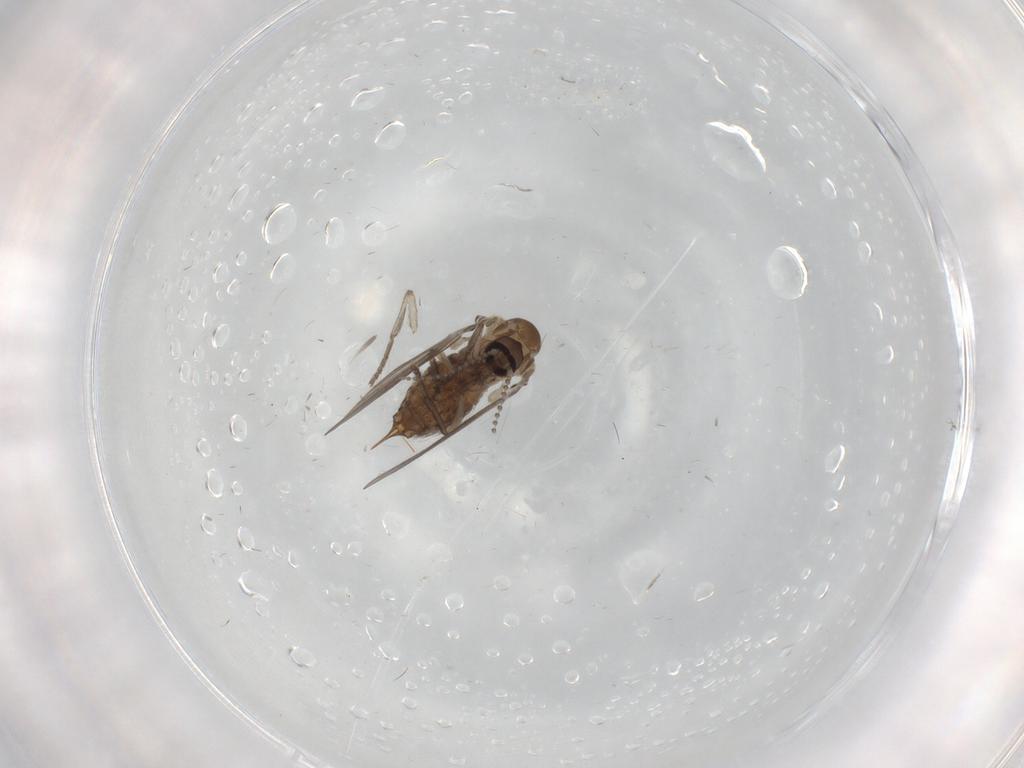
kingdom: Animalia
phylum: Arthropoda
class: Insecta
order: Diptera
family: Psychodidae
